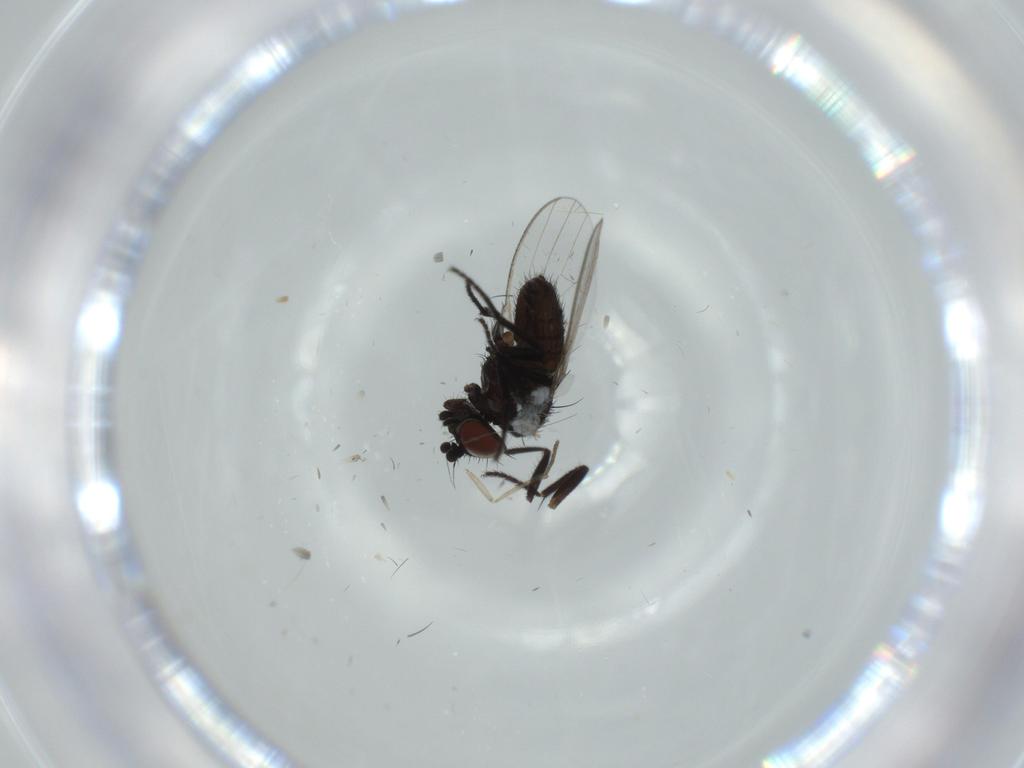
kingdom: Animalia
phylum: Arthropoda
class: Insecta
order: Diptera
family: Milichiidae
